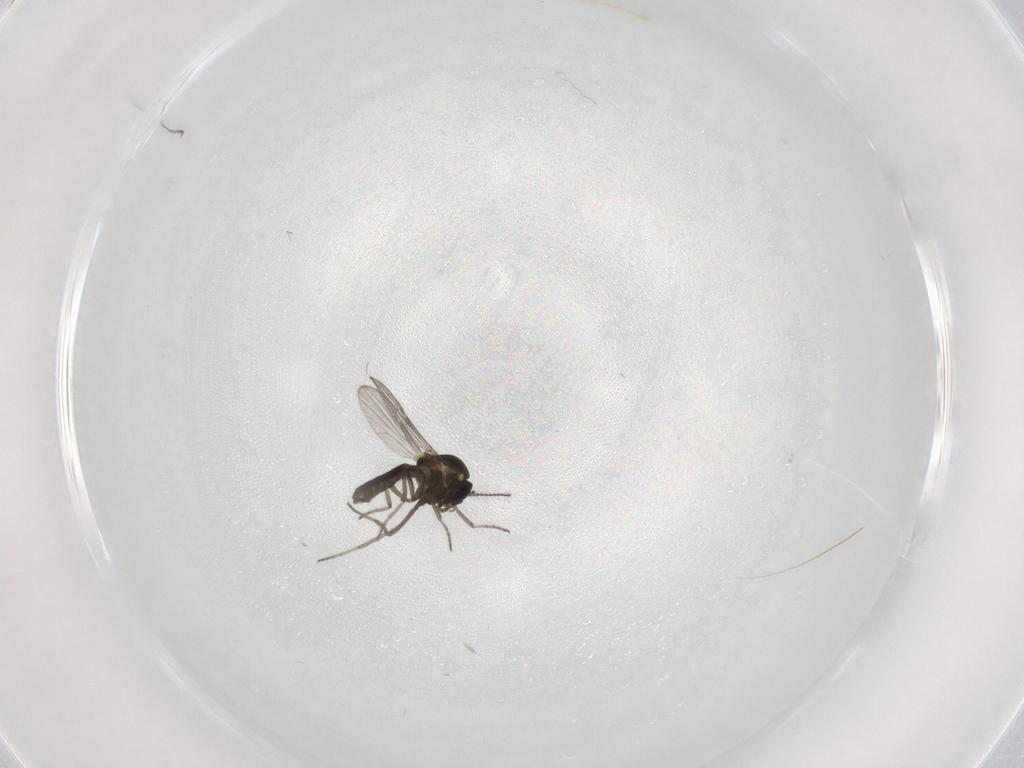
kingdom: Animalia
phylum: Arthropoda
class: Insecta
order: Diptera
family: Ceratopogonidae
